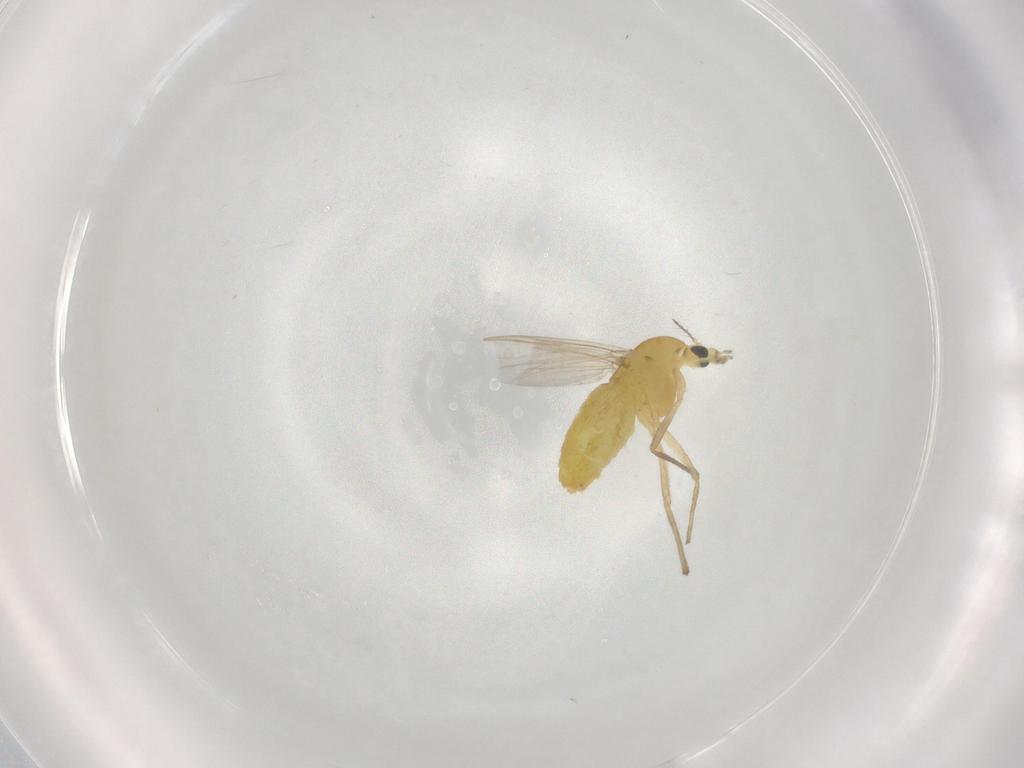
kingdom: Animalia
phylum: Arthropoda
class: Insecta
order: Diptera
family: Chironomidae
